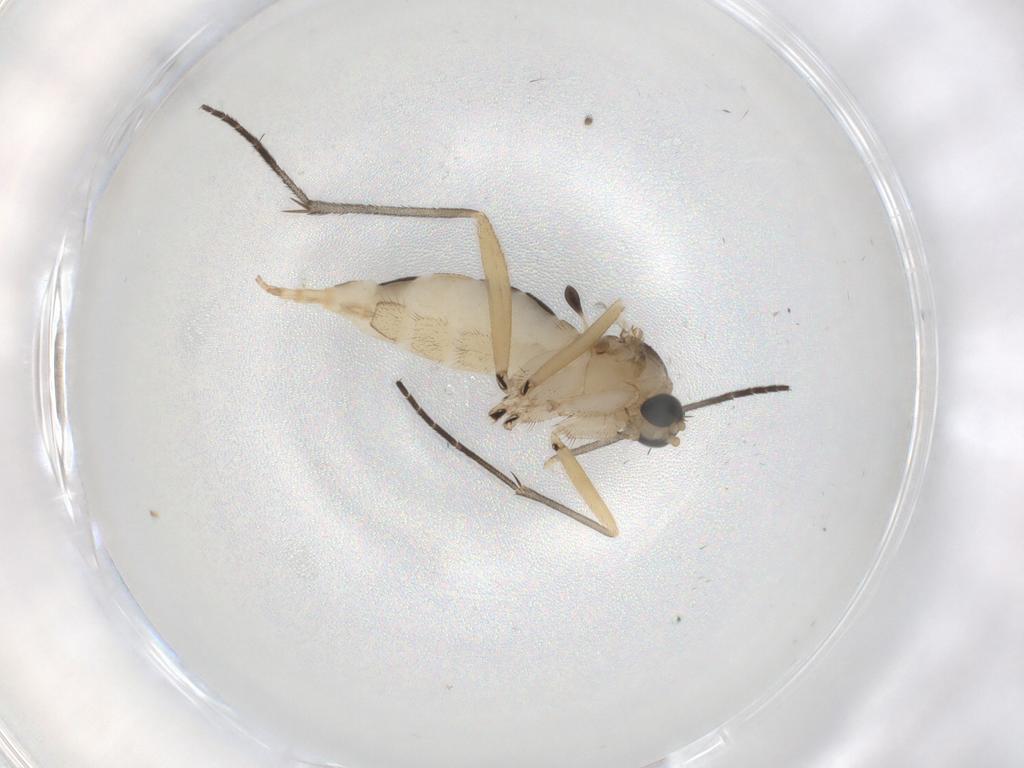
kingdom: Animalia
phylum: Arthropoda
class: Insecta
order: Diptera
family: Sciaridae
